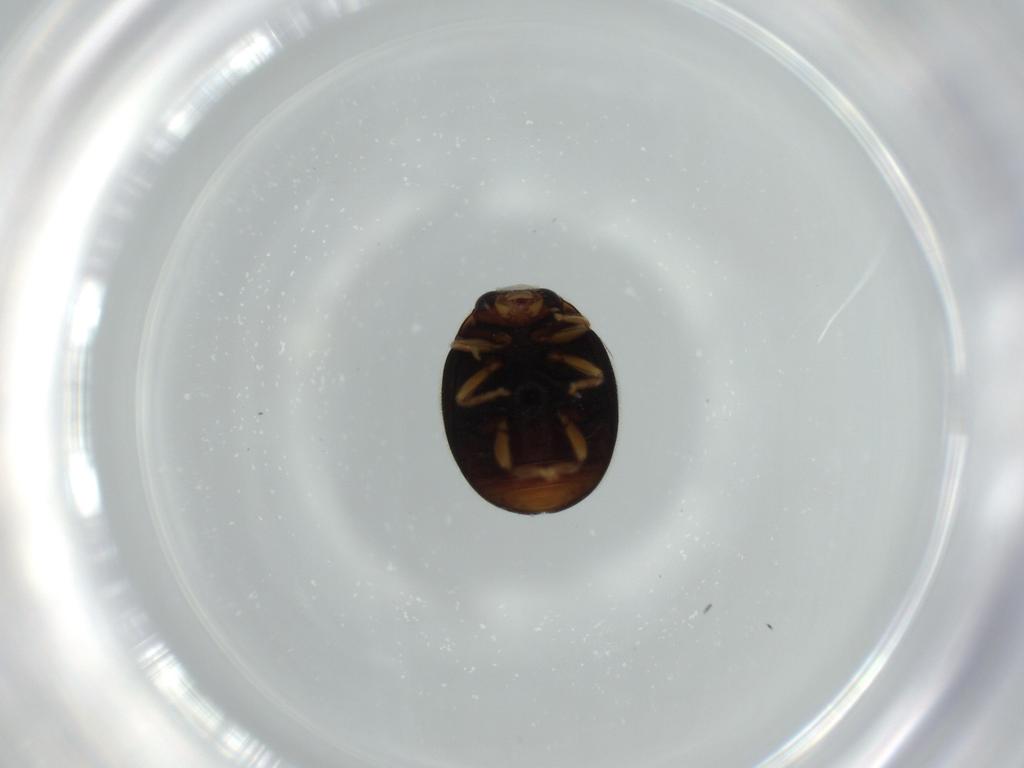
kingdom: Animalia
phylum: Arthropoda
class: Insecta
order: Coleoptera
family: Coccinellidae
